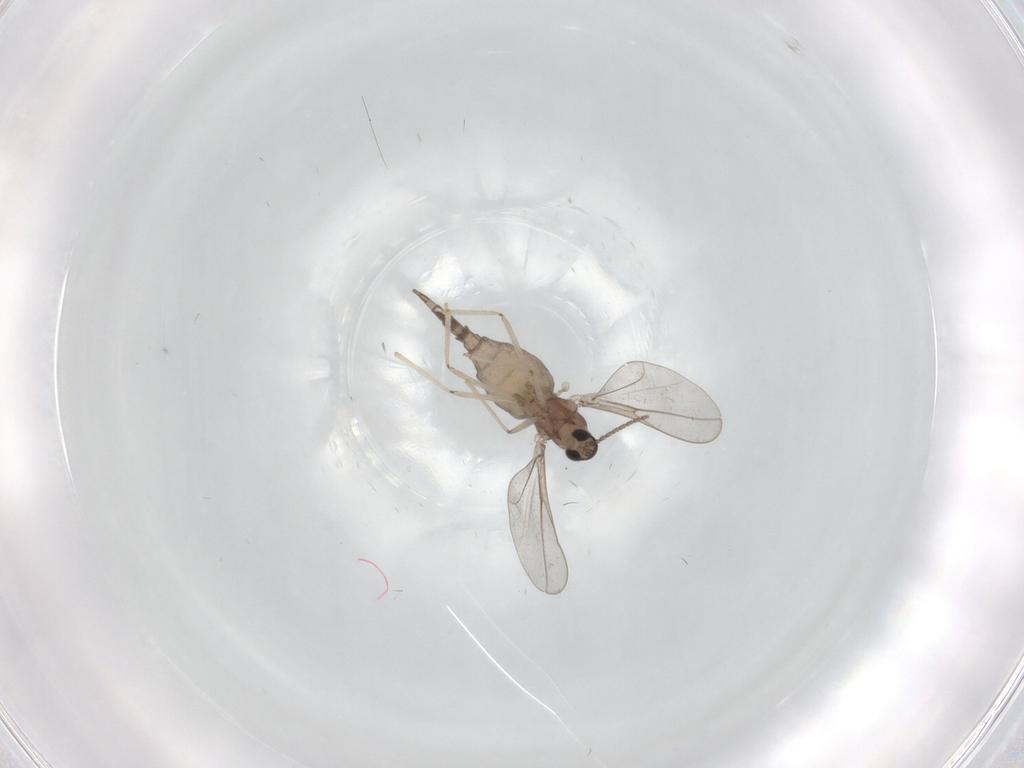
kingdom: Animalia
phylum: Arthropoda
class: Insecta
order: Diptera
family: Cecidomyiidae
